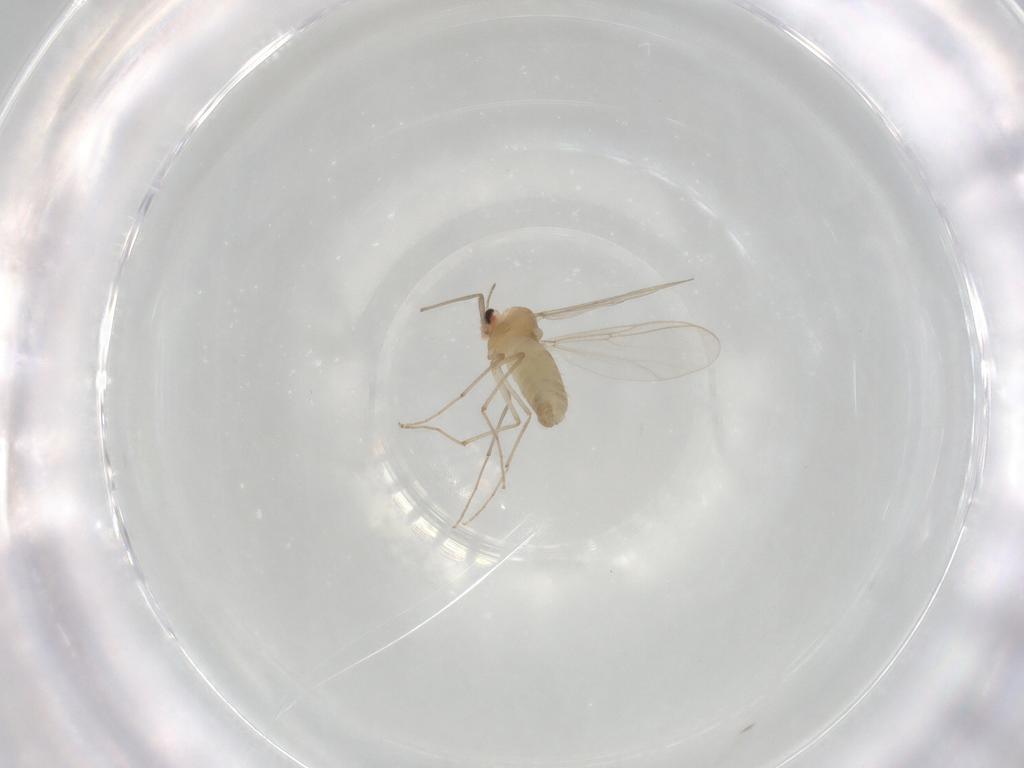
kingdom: Animalia
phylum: Arthropoda
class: Insecta
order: Diptera
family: Chironomidae
